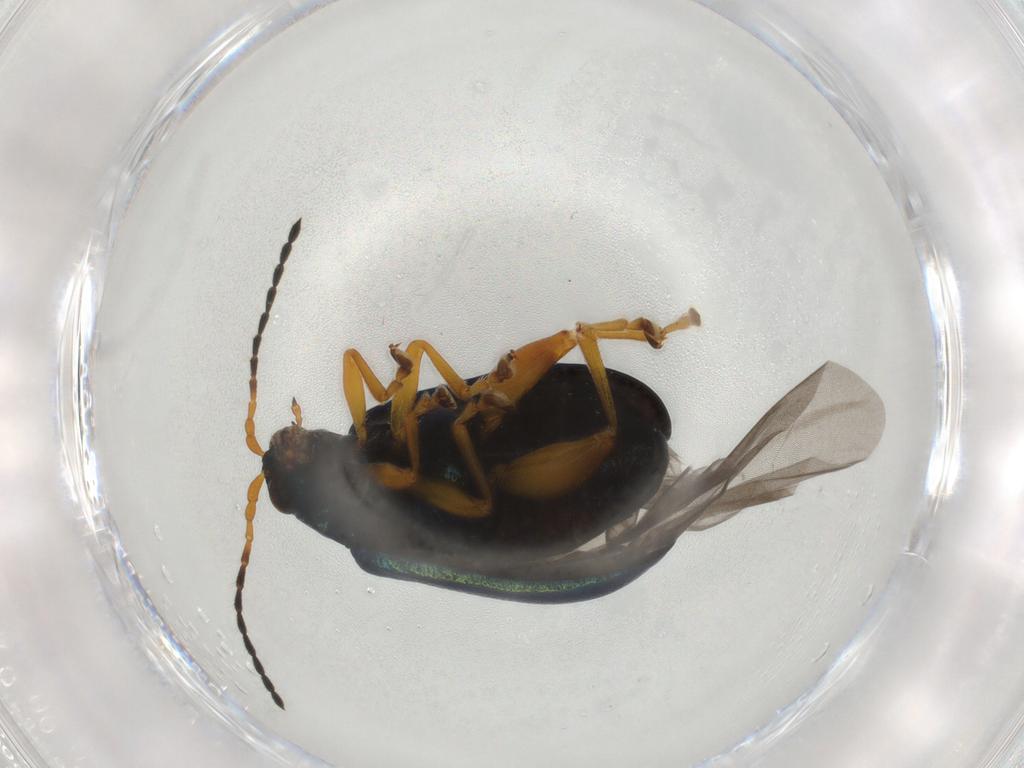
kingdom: Animalia
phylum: Arthropoda
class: Insecta
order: Coleoptera
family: Chrysomelidae
